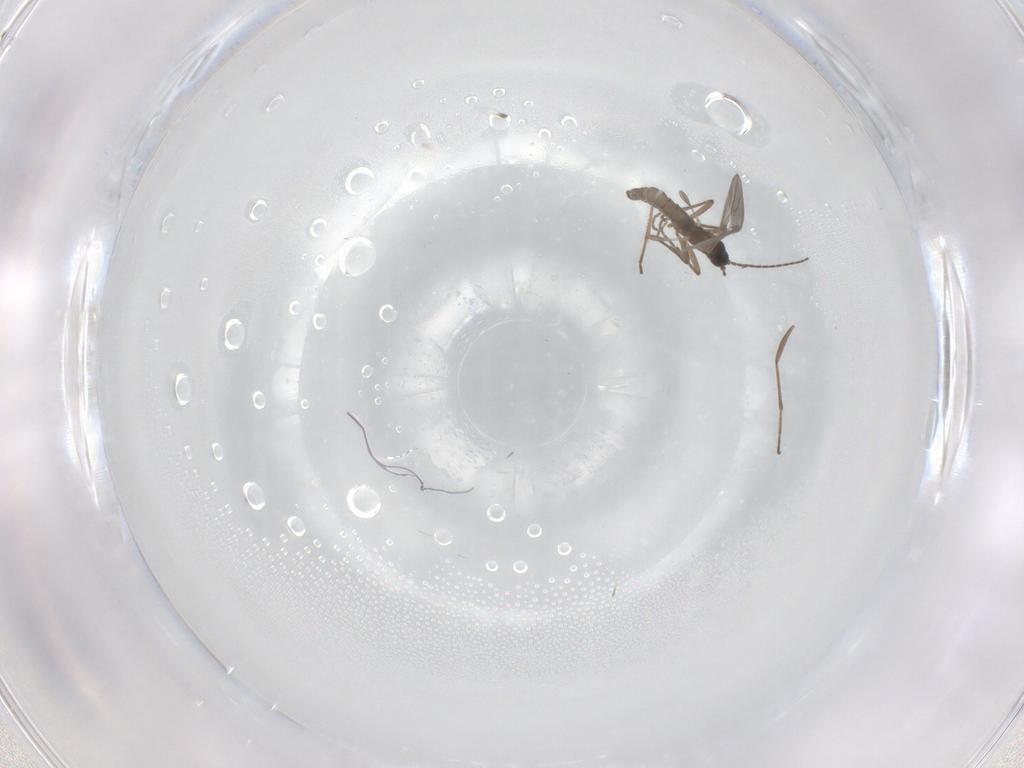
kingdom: Animalia
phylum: Arthropoda
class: Insecta
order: Diptera
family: Sciaridae
